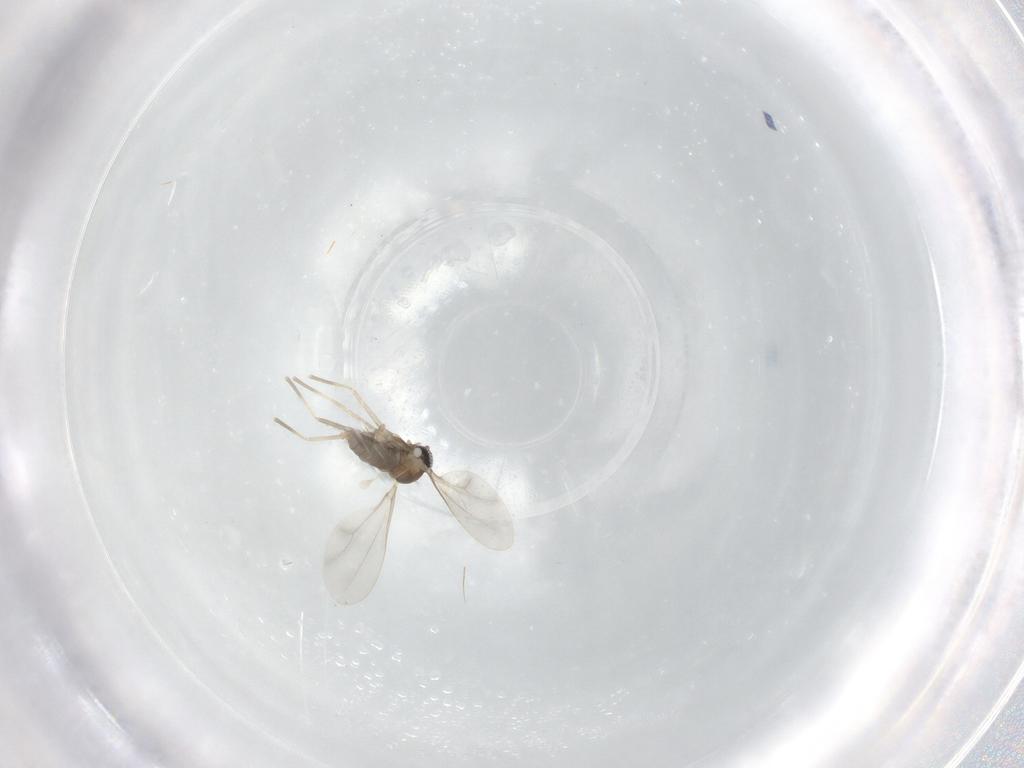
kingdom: Animalia
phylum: Arthropoda
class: Insecta
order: Diptera
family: Cecidomyiidae
